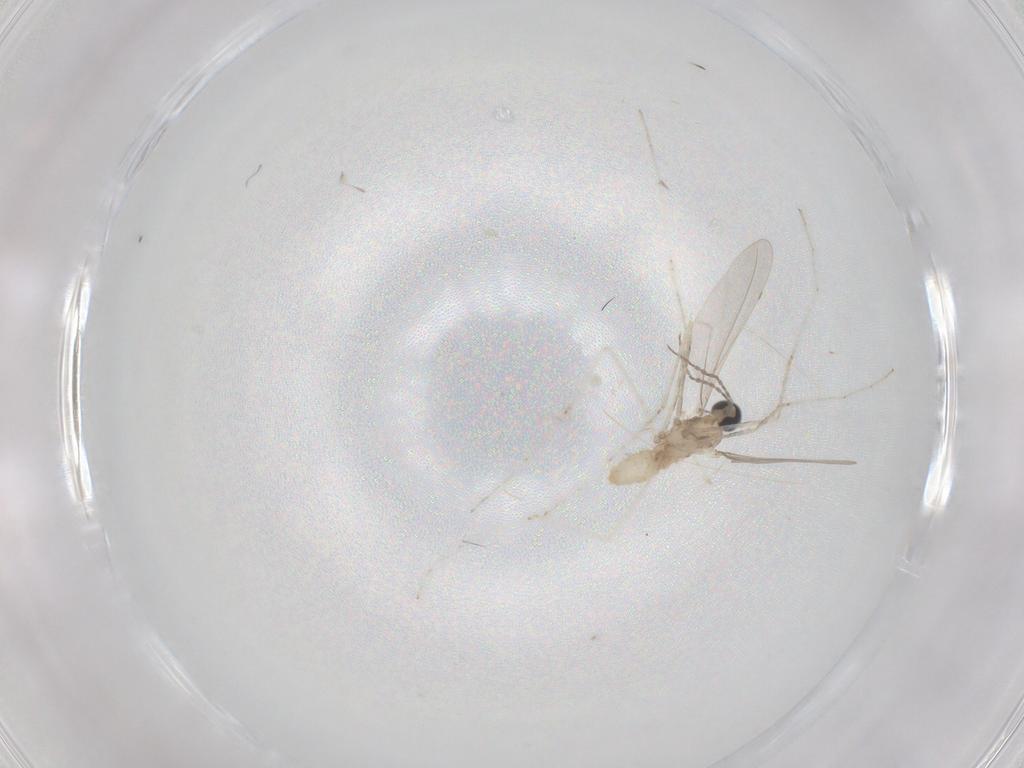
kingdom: Animalia
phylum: Arthropoda
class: Insecta
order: Diptera
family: Cecidomyiidae
